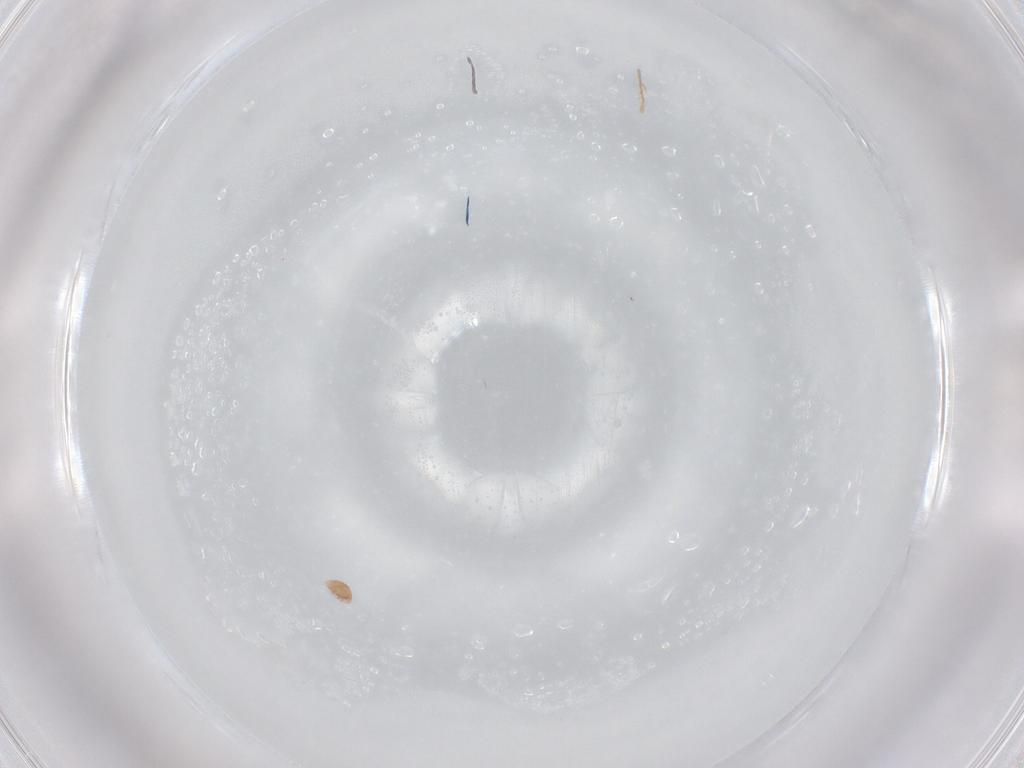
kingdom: Animalia
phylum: Arthropoda
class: Arachnida
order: Trombidiformes
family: Scutacaridae
